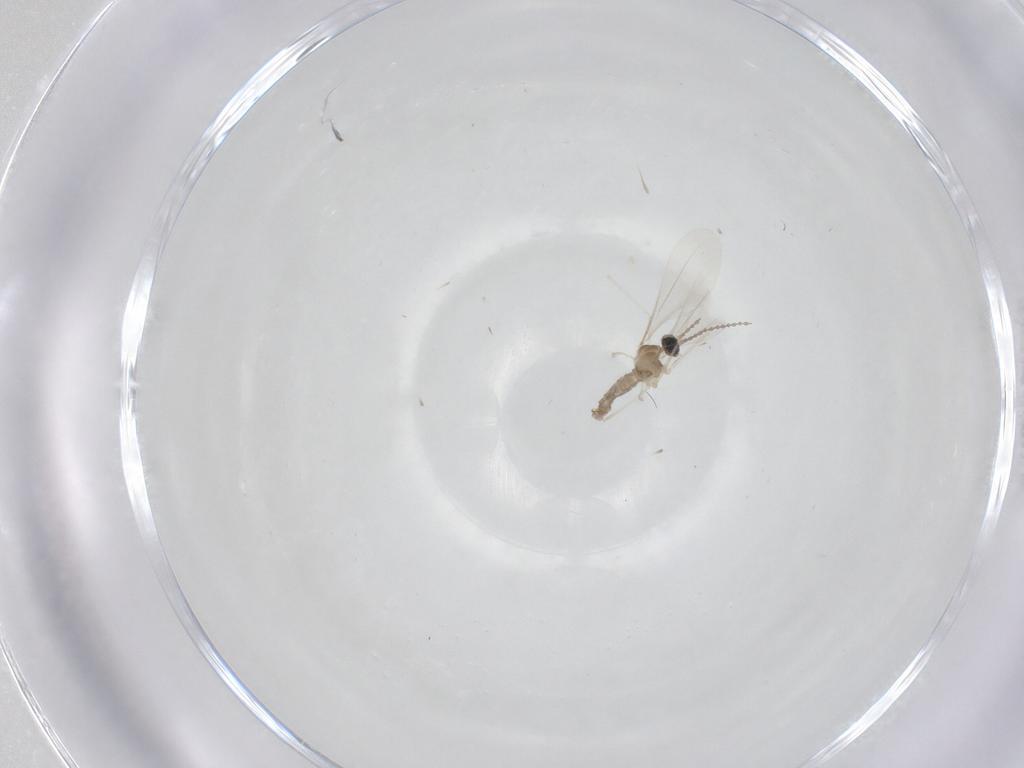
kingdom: Animalia
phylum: Arthropoda
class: Insecta
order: Diptera
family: Cecidomyiidae
